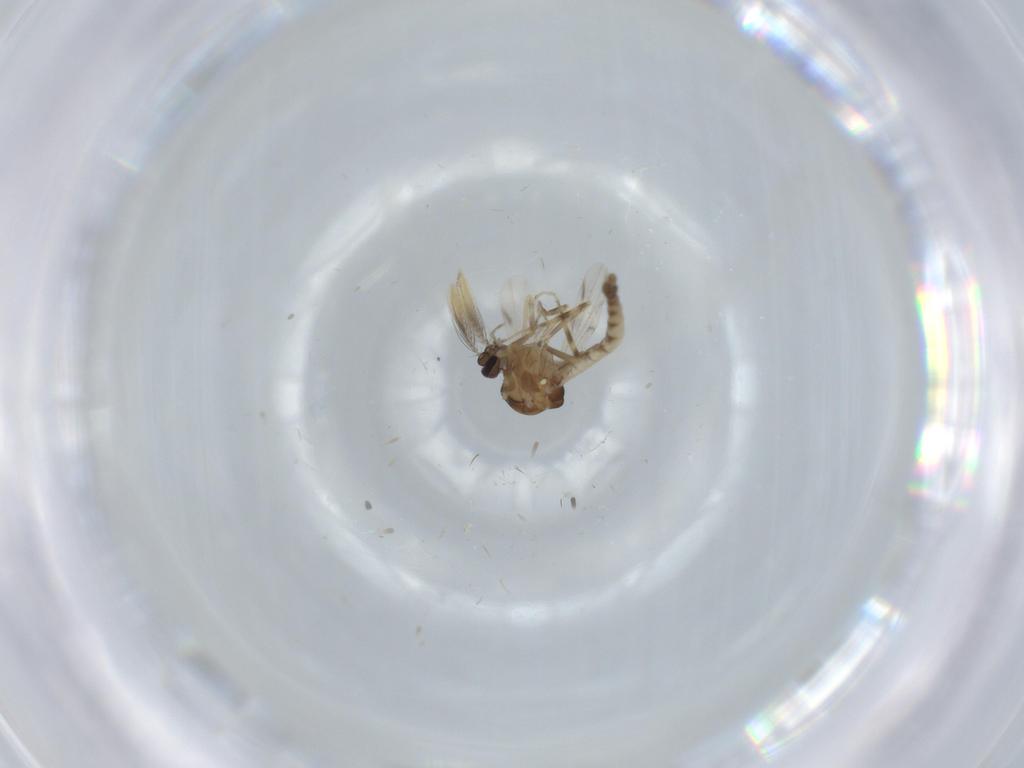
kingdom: Animalia
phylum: Arthropoda
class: Insecta
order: Diptera
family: Ceratopogonidae
